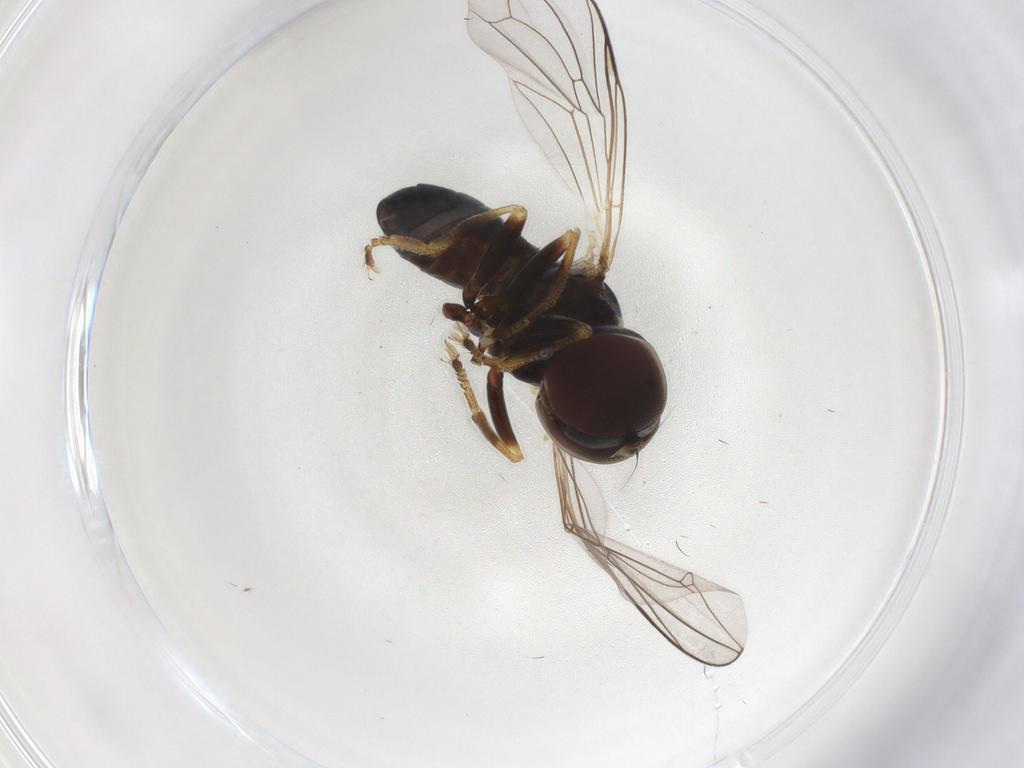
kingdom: Animalia
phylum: Arthropoda
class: Insecta
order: Diptera
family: Pipunculidae
